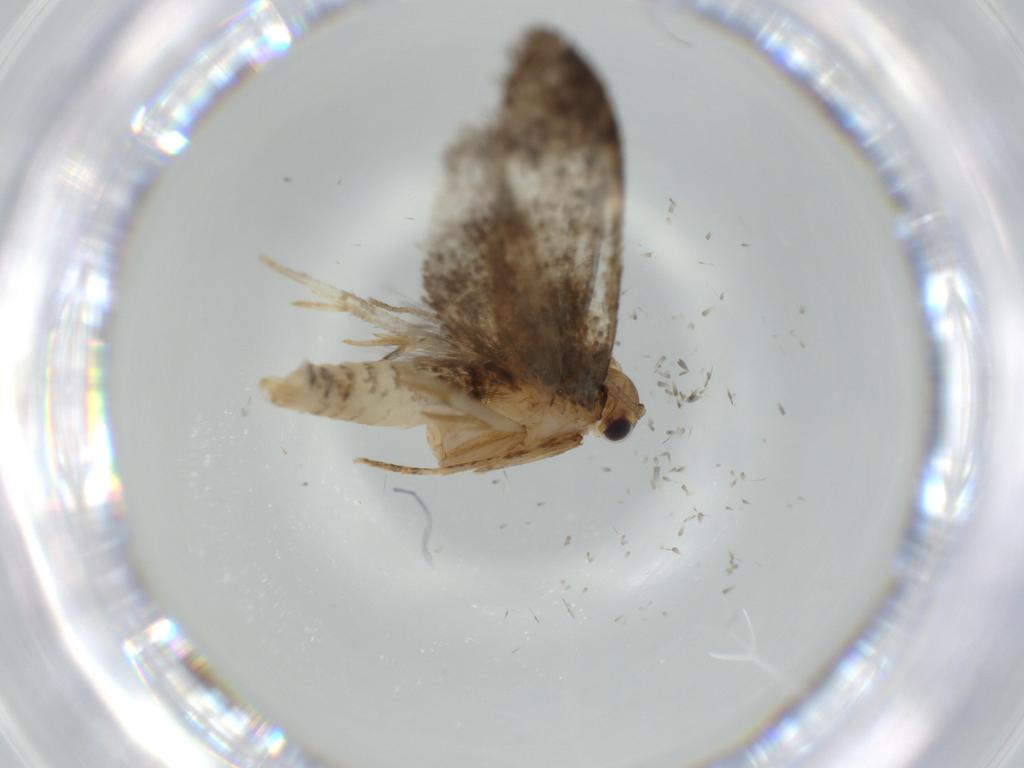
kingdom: Animalia
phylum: Arthropoda
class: Insecta
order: Lepidoptera
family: Tineidae
